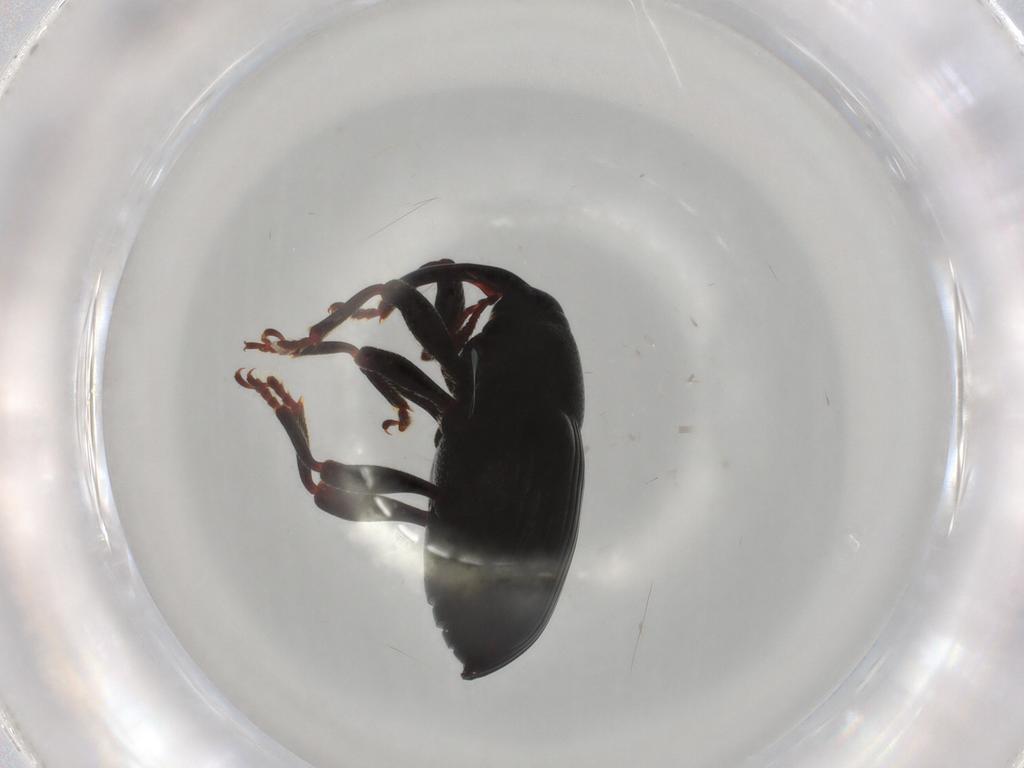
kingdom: Animalia
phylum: Arthropoda
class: Insecta
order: Coleoptera
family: Curculionidae
